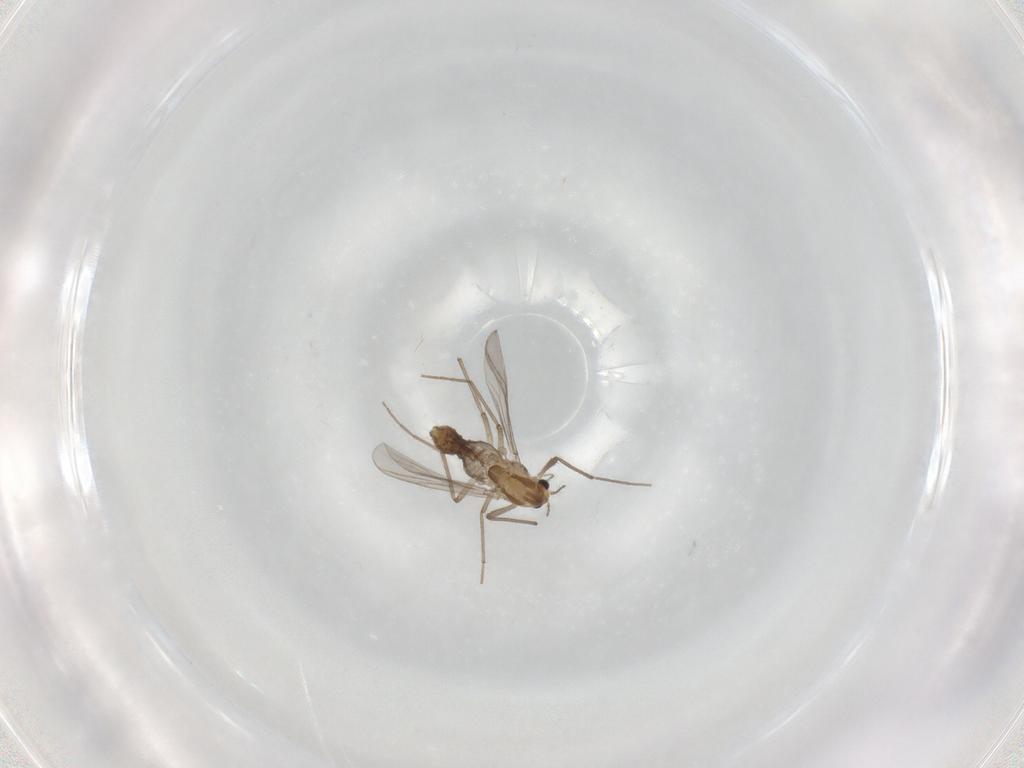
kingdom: Animalia
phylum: Arthropoda
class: Insecta
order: Diptera
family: Chironomidae
